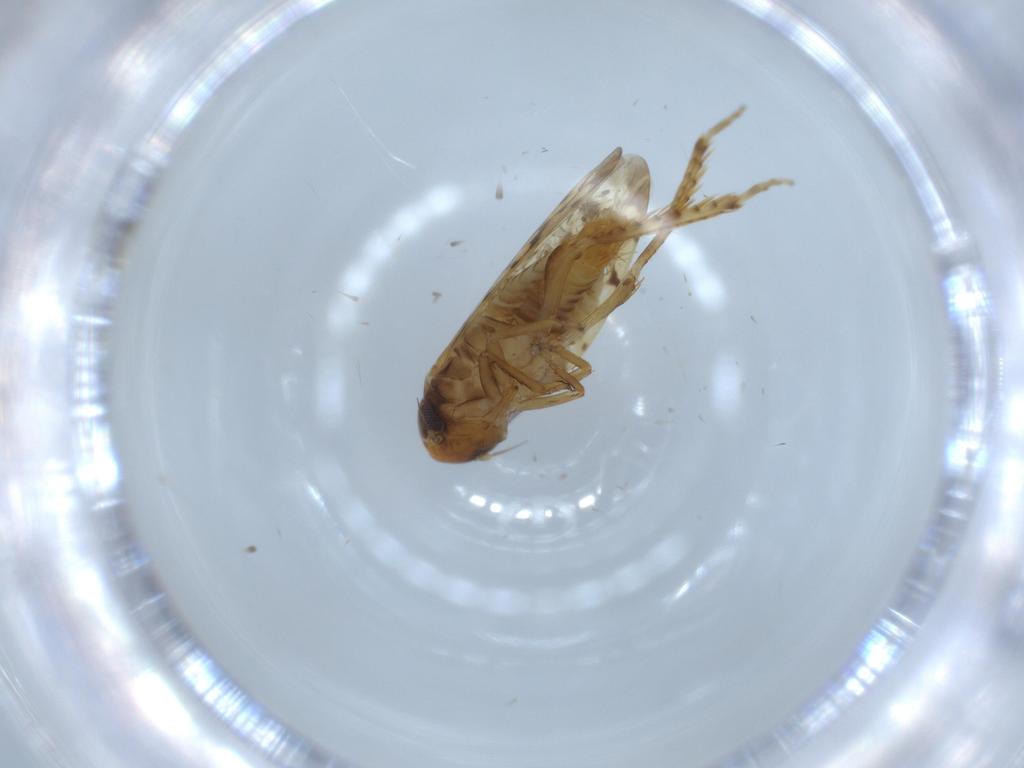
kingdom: Animalia
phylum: Arthropoda
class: Insecta
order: Hemiptera
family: Cicadellidae
